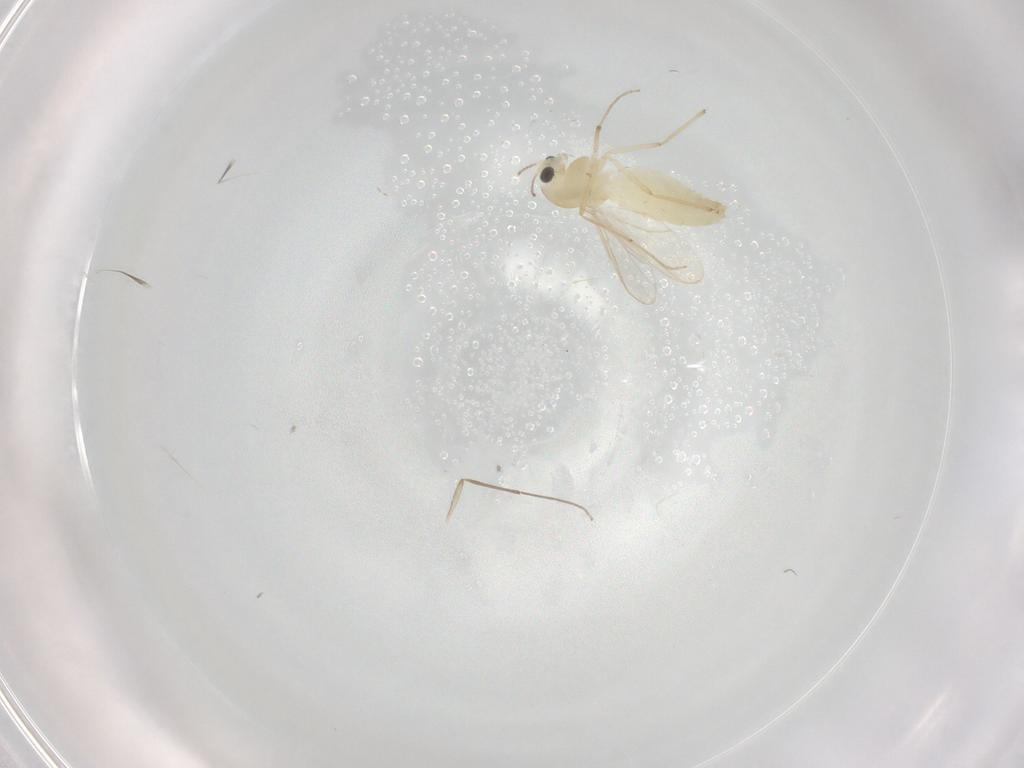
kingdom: Animalia
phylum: Arthropoda
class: Insecta
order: Diptera
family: Chironomidae
